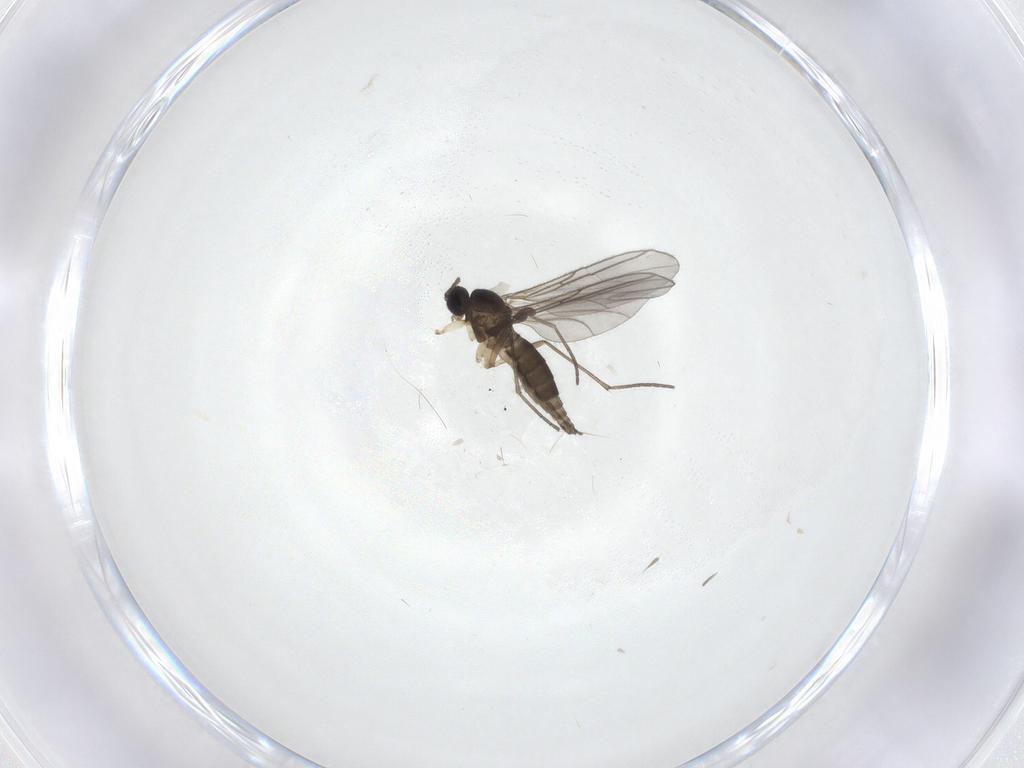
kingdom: Animalia
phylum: Arthropoda
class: Insecta
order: Diptera
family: Sciaridae
